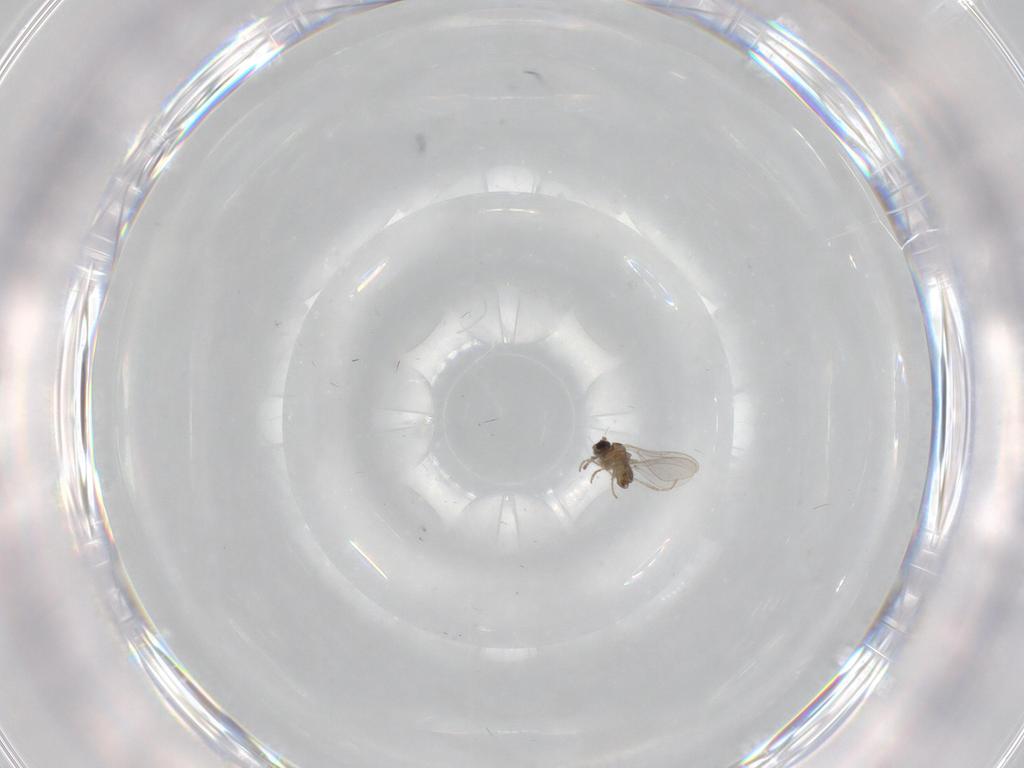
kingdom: Animalia
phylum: Arthropoda
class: Insecta
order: Diptera
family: Cecidomyiidae
